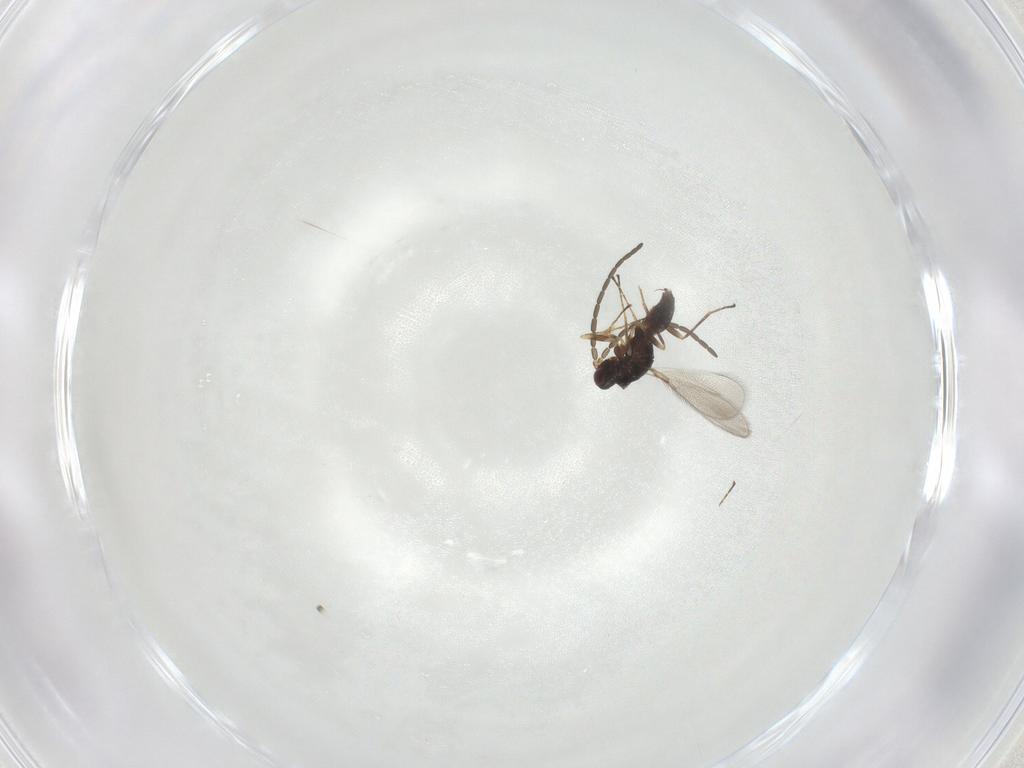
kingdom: Animalia
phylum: Arthropoda
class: Insecta
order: Hymenoptera
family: Mymaridae
